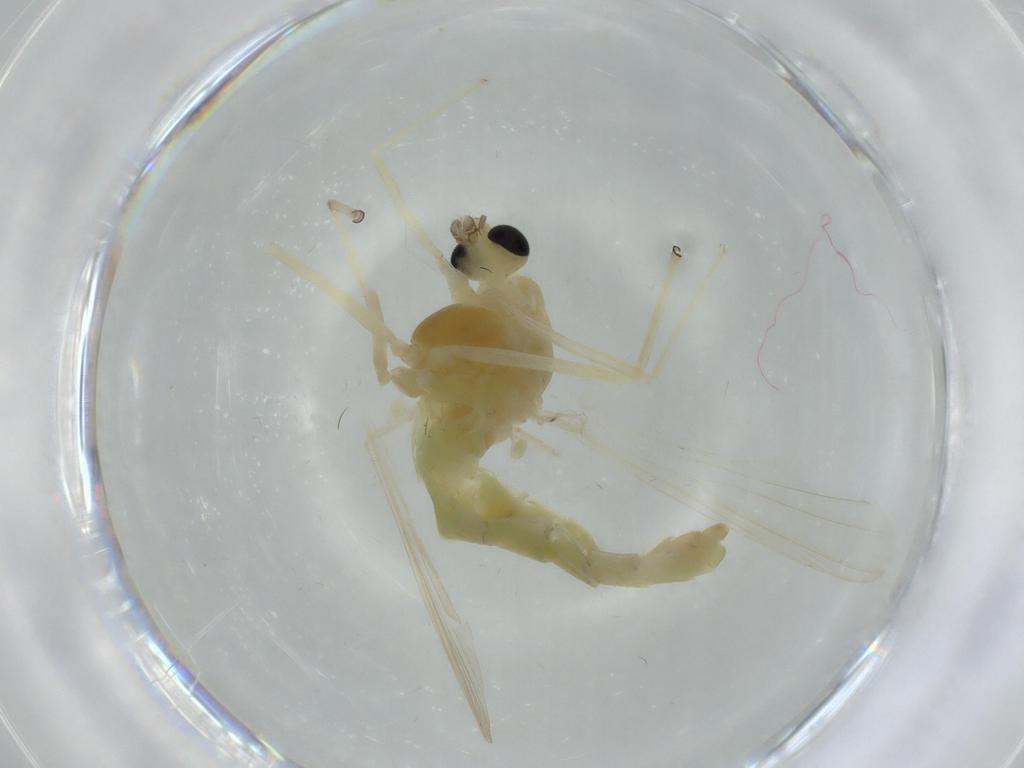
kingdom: Animalia
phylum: Arthropoda
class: Insecta
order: Diptera
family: Chironomidae
